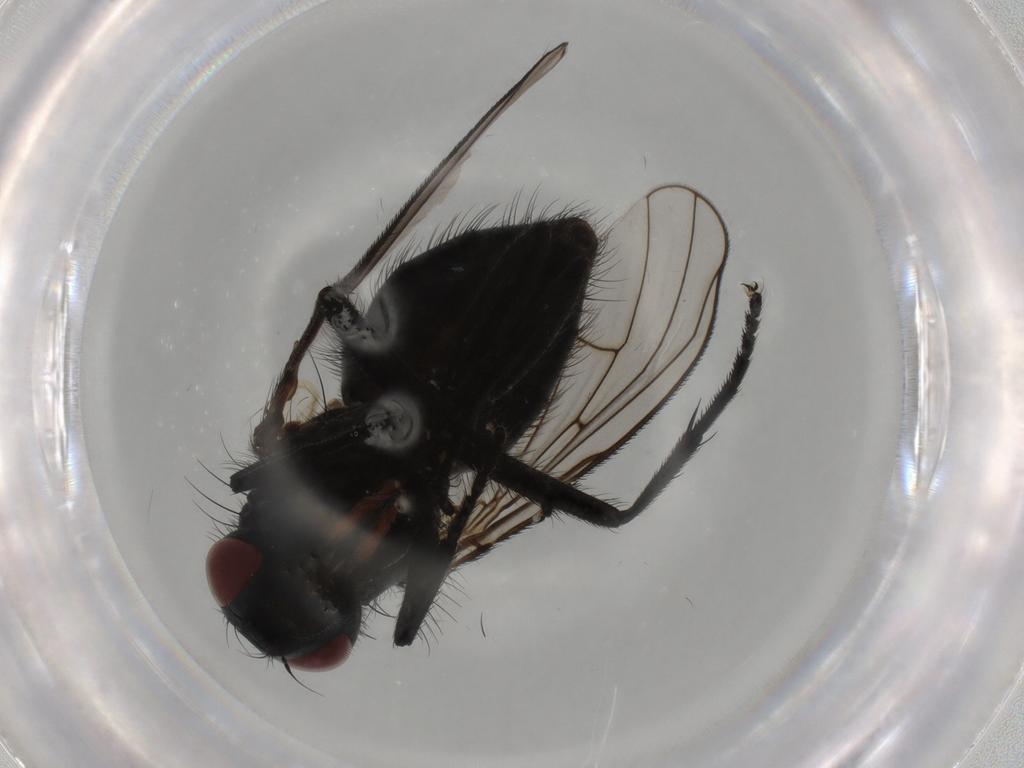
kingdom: Animalia
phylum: Arthropoda
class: Insecta
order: Diptera
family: Muscidae
